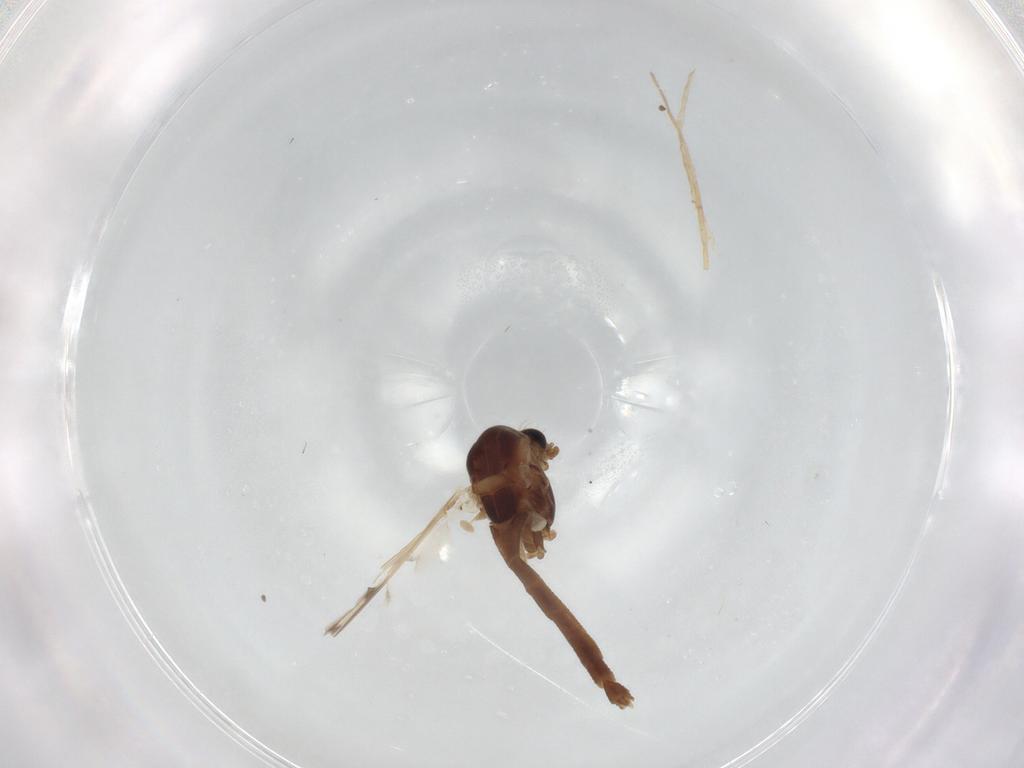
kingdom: Animalia
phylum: Arthropoda
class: Insecta
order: Diptera
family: Chironomidae
